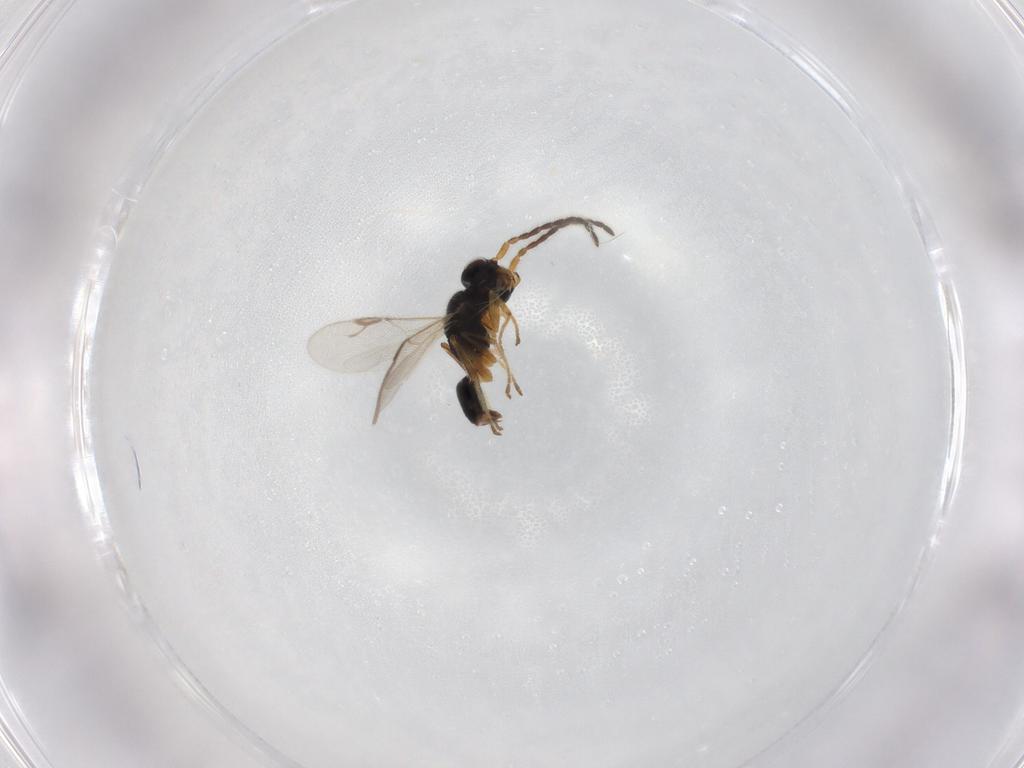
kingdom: Animalia
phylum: Arthropoda
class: Insecta
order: Hymenoptera
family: Dryinidae
